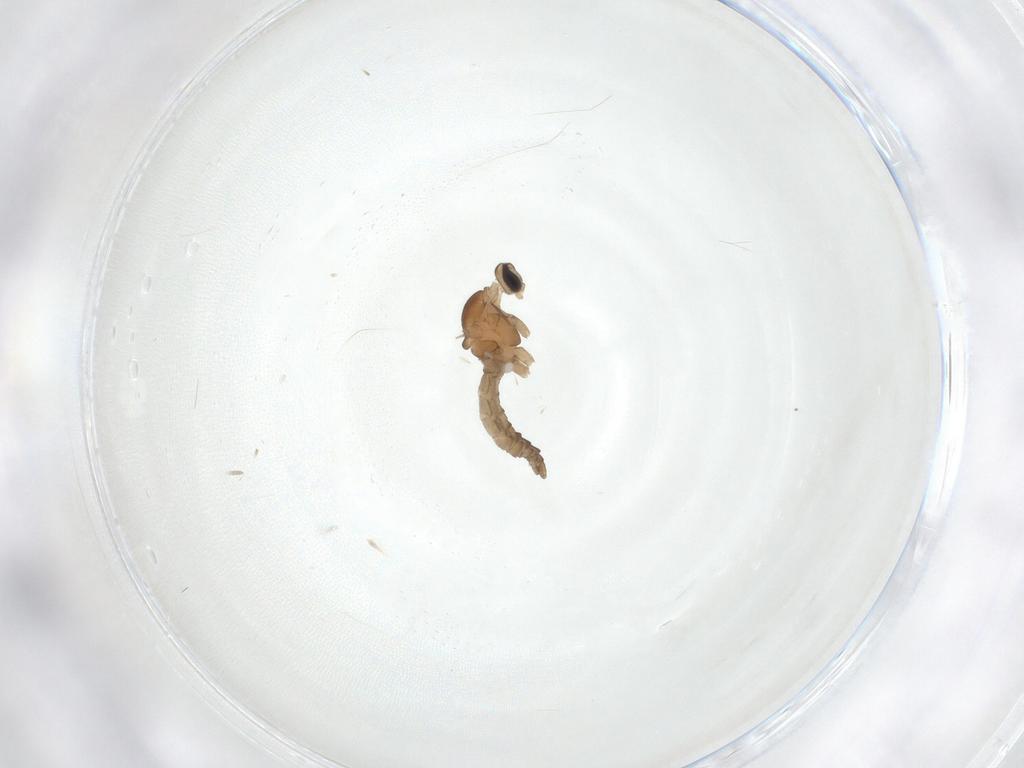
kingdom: Animalia
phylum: Arthropoda
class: Insecta
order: Diptera
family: Cecidomyiidae
